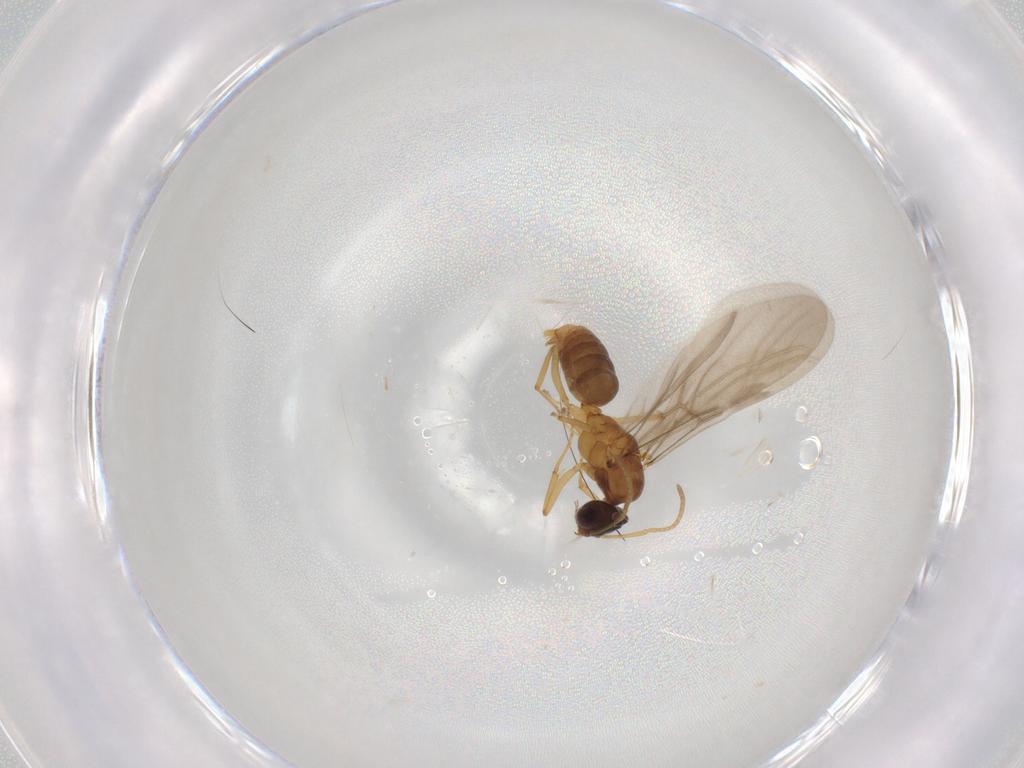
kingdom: Animalia
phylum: Arthropoda
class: Insecta
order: Hymenoptera
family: Formicidae
